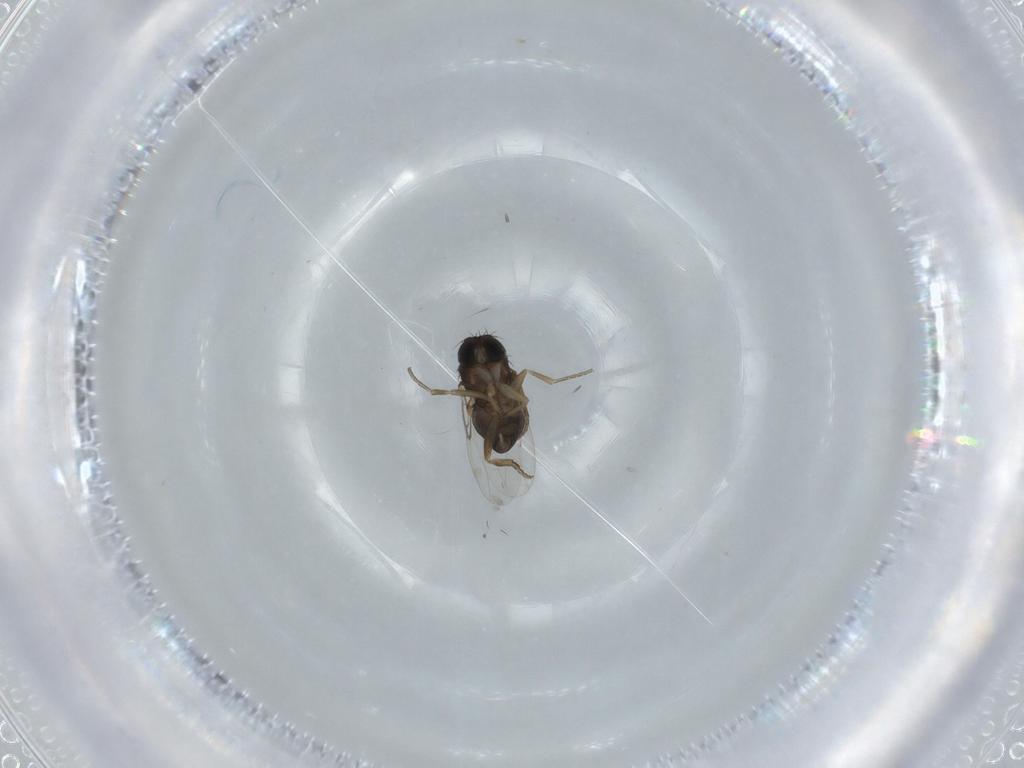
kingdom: Animalia
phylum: Arthropoda
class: Insecta
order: Diptera
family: Phoridae
